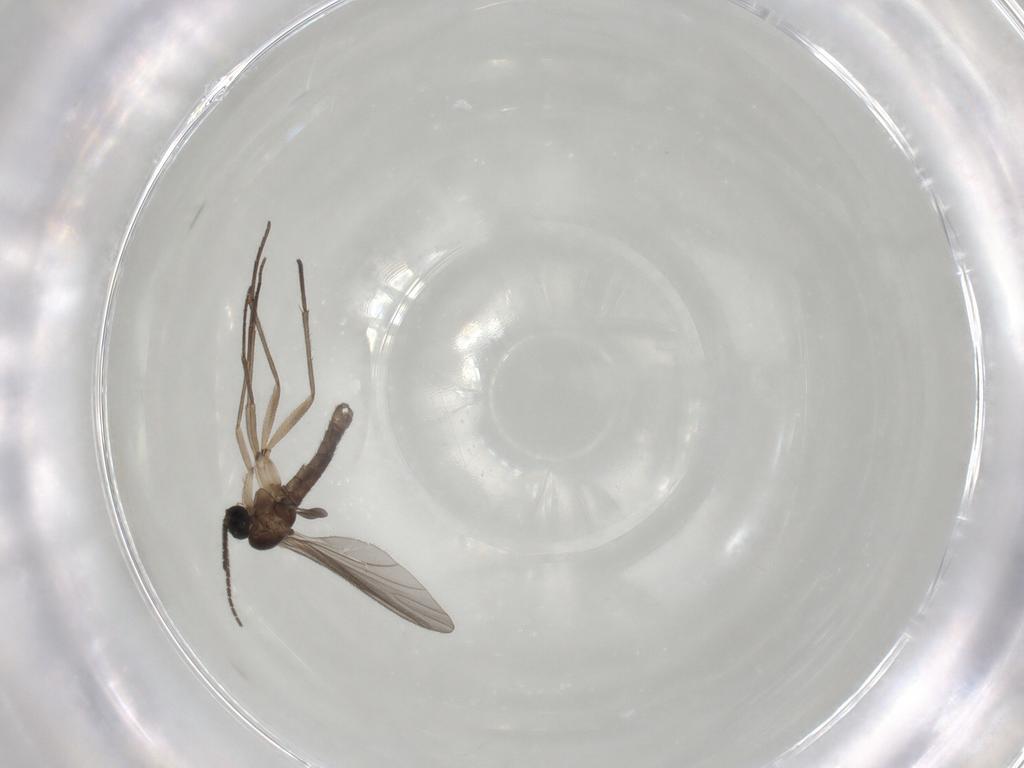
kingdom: Animalia
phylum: Arthropoda
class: Insecta
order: Diptera
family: Sciaridae
